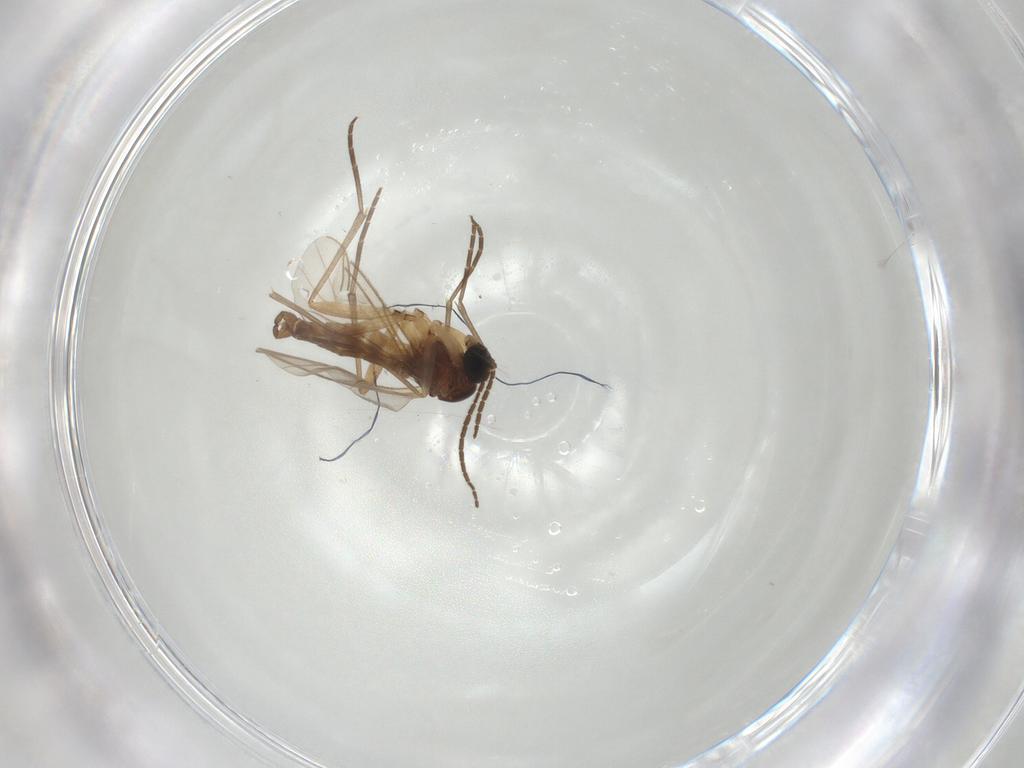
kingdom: Animalia
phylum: Arthropoda
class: Insecta
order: Diptera
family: Sciaridae
